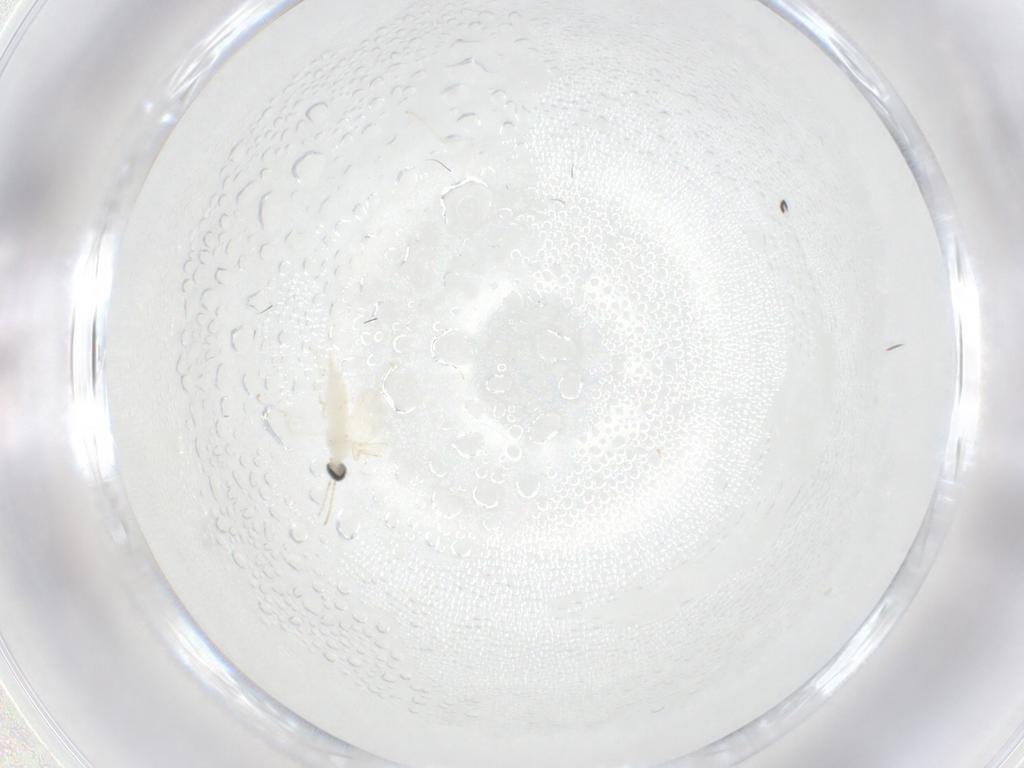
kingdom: Animalia
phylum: Arthropoda
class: Insecta
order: Diptera
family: Cecidomyiidae
